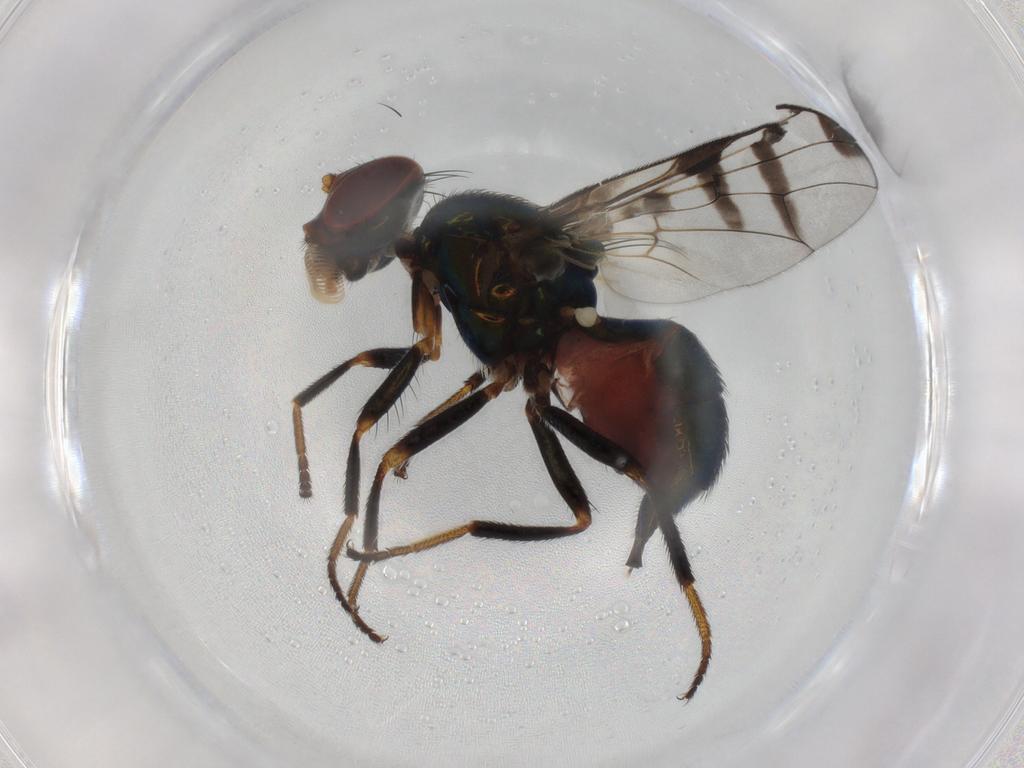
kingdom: Animalia
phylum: Arthropoda
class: Insecta
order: Diptera
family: Platystomatidae
